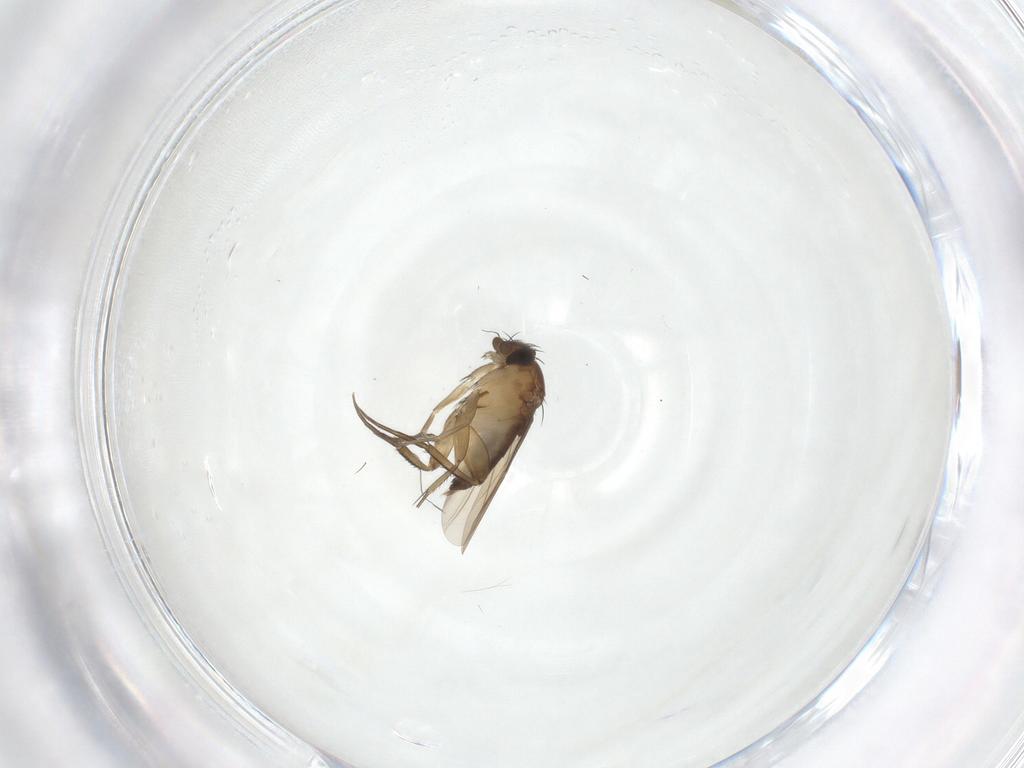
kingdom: Animalia
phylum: Arthropoda
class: Insecta
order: Diptera
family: Phoridae
